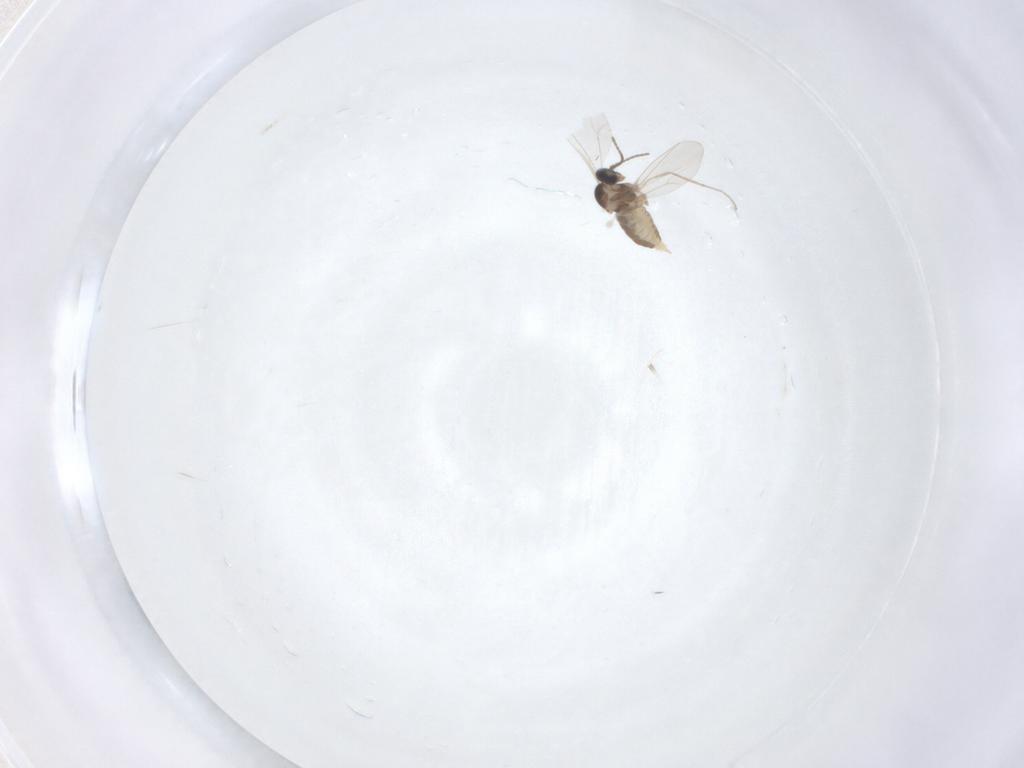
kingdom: Animalia
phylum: Arthropoda
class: Insecta
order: Diptera
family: Cecidomyiidae
